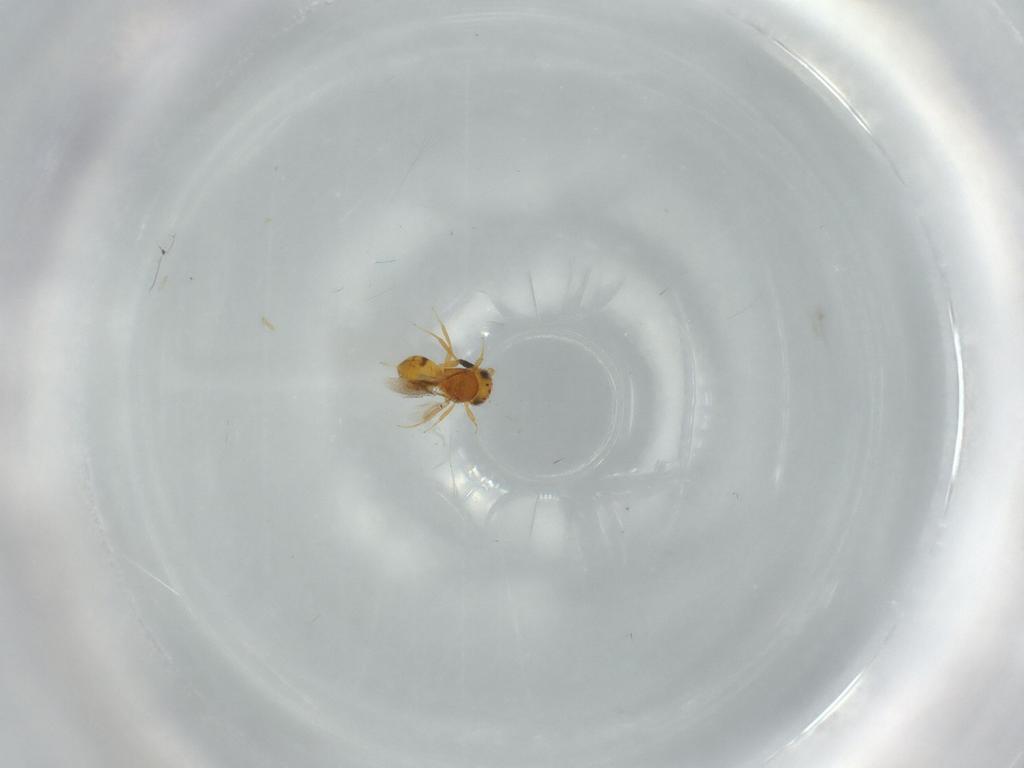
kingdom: Animalia
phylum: Arthropoda
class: Insecta
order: Hymenoptera
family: Scelionidae
